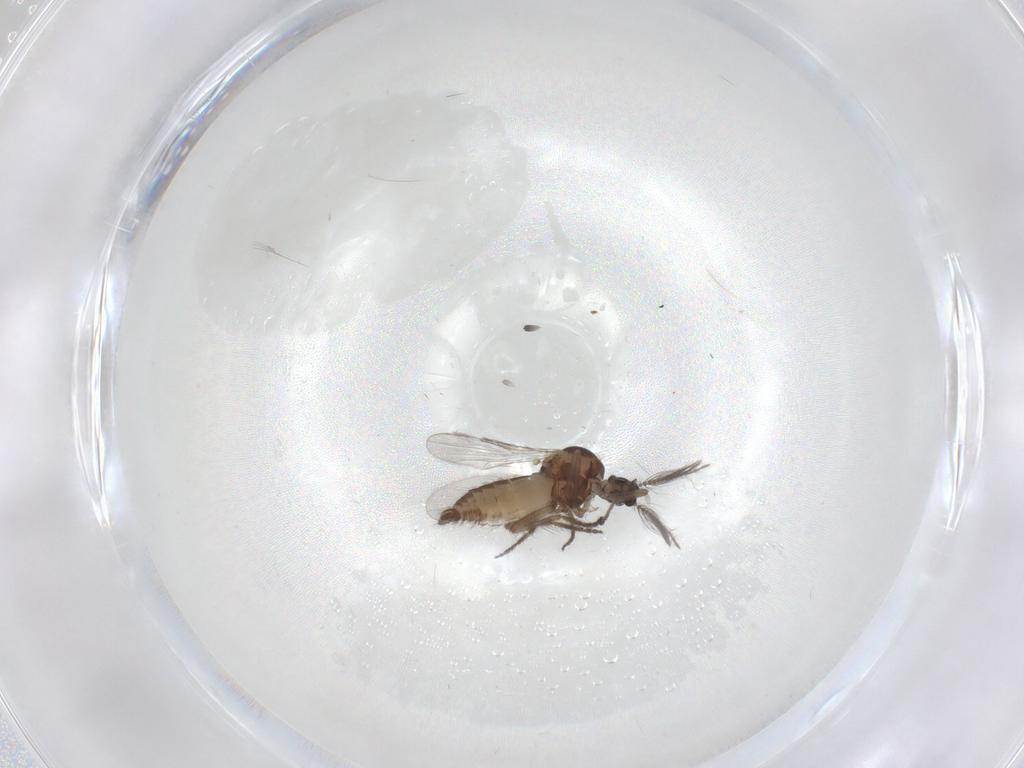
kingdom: Animalia
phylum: Arthropoda
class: Insecta
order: Diptera
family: Ceratopogonidae
